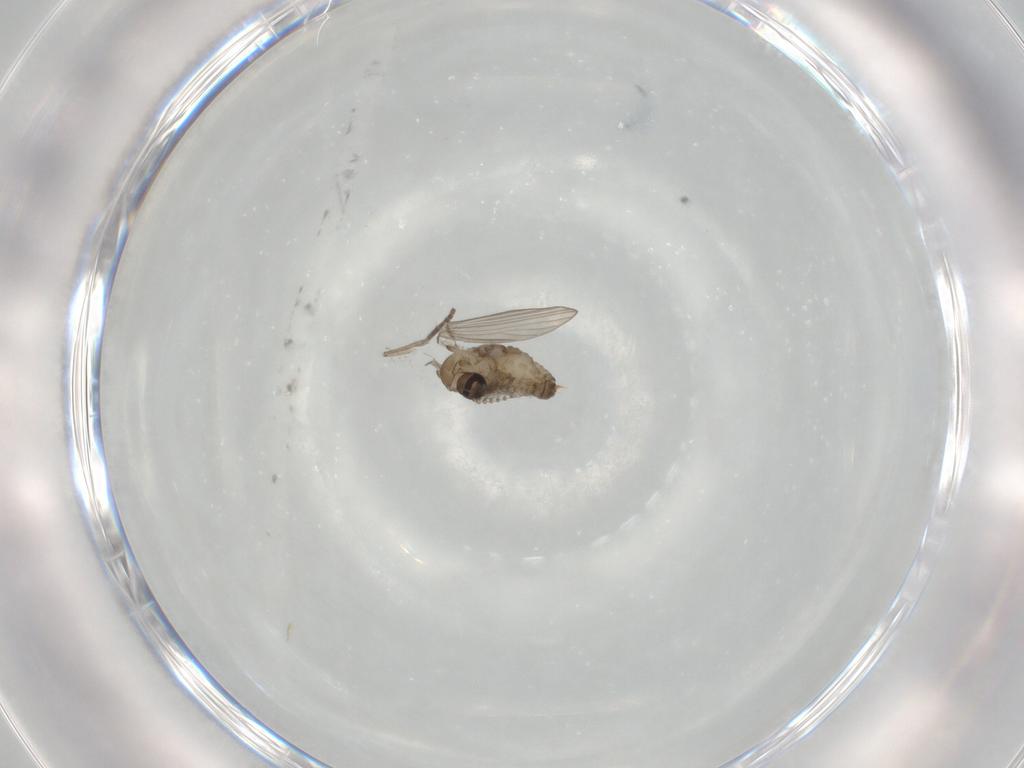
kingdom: Animalia
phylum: Arthropoda
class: Insecta
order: Diptera
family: Psychodidae
